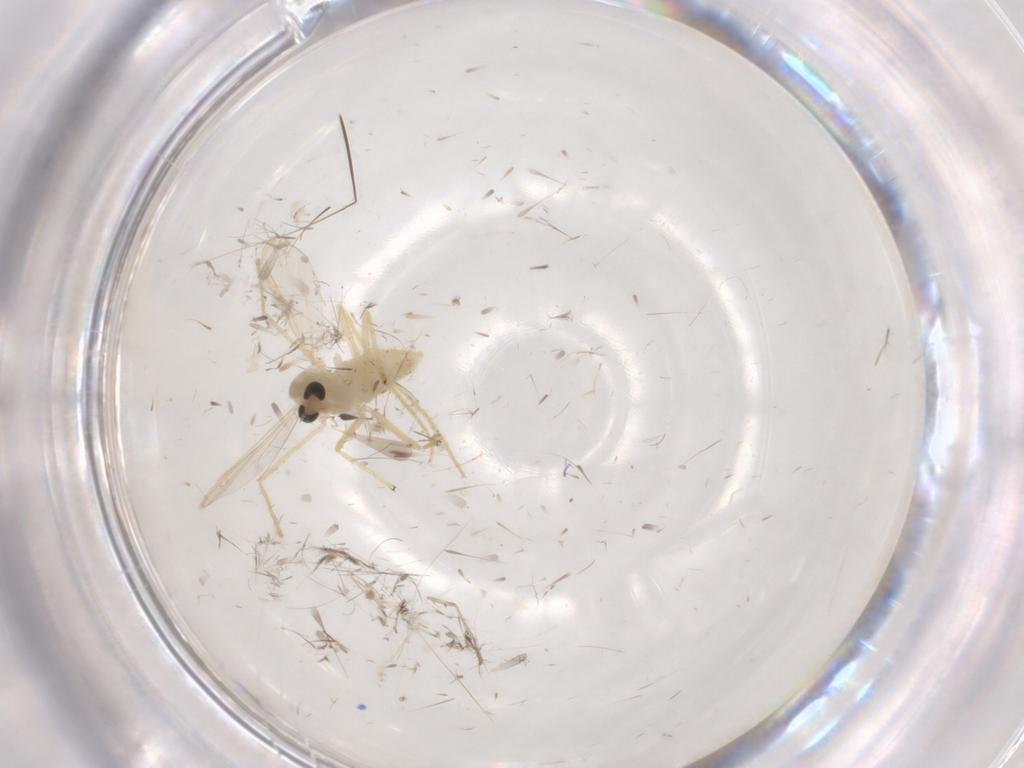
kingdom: Animalia
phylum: Arthropoda
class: Insecta
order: Diptera
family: Chironomidae
